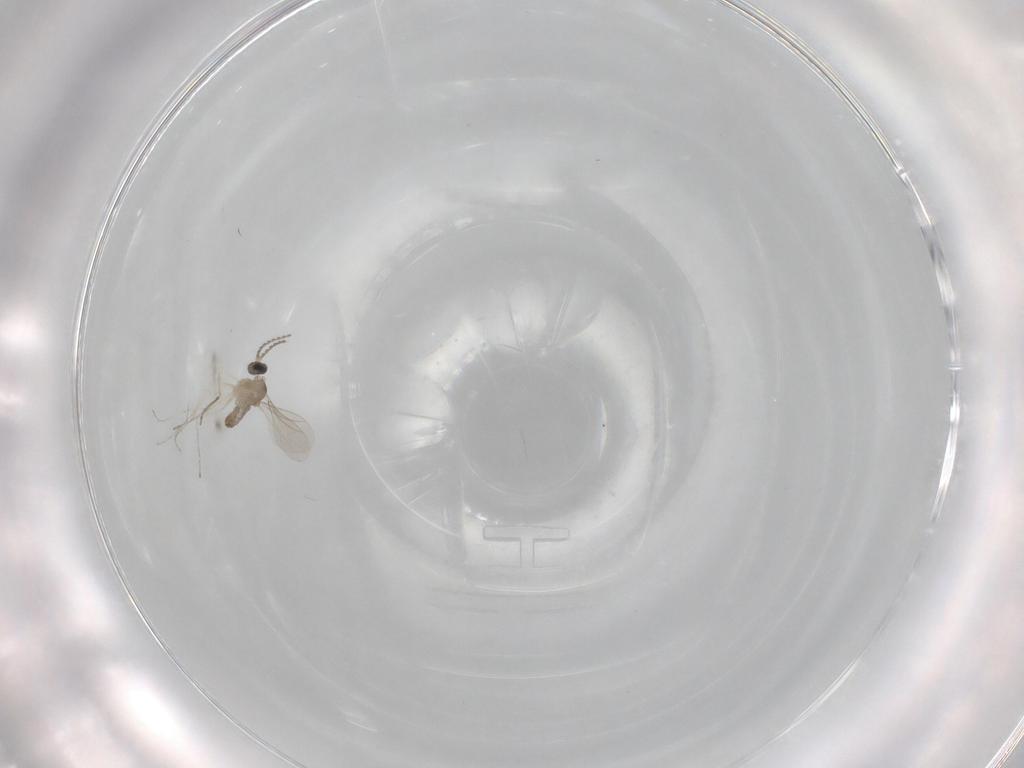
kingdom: Animalia
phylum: Arthropoda
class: Insecta
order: Diptera
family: Cecidomyiidae
